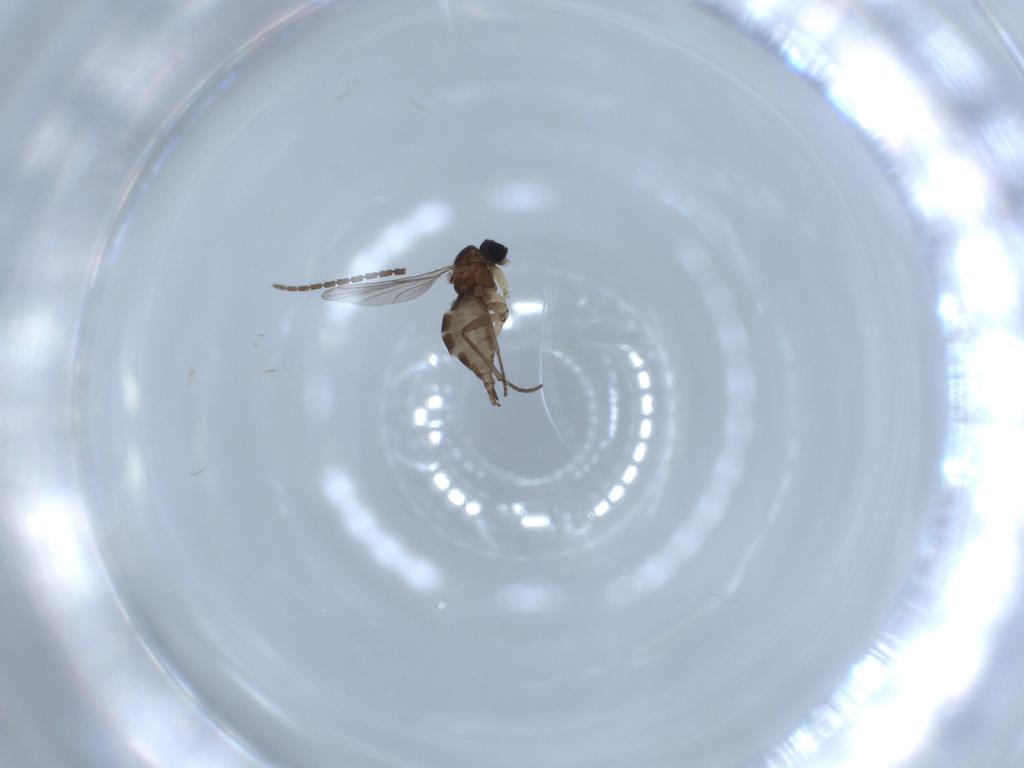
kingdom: Animalia
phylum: Arthropoda
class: Insecta
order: Diptera
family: Sciaridae
